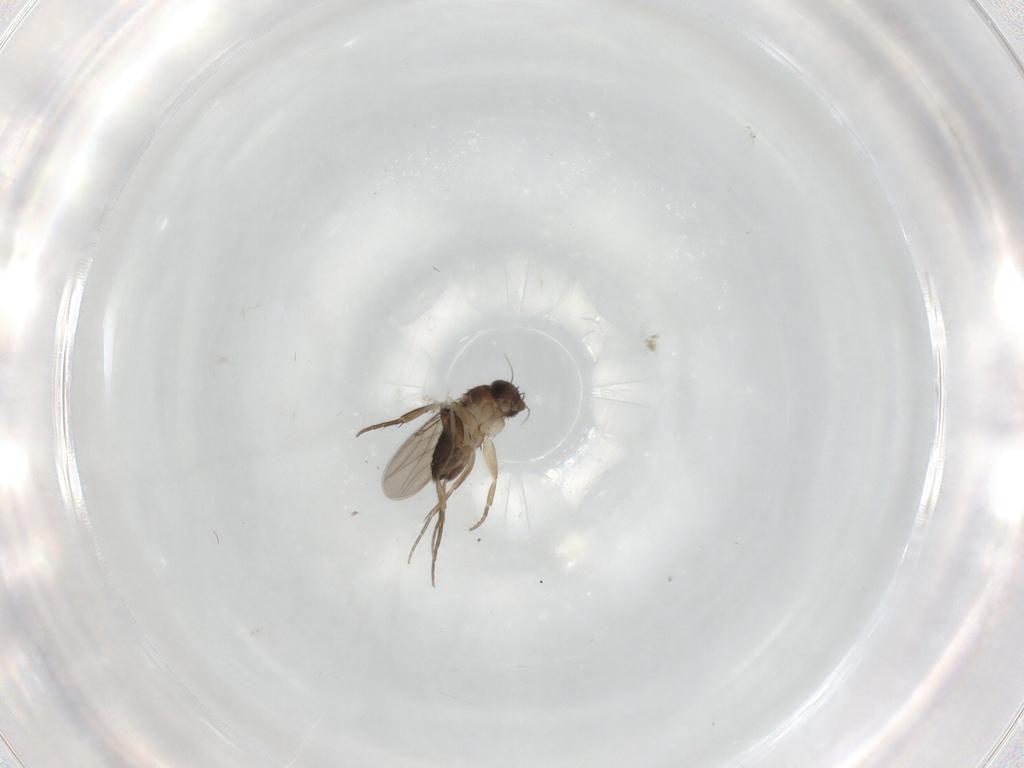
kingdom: Animalia
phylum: Arthropoda
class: Insecta
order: Diptera
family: Phoridae
